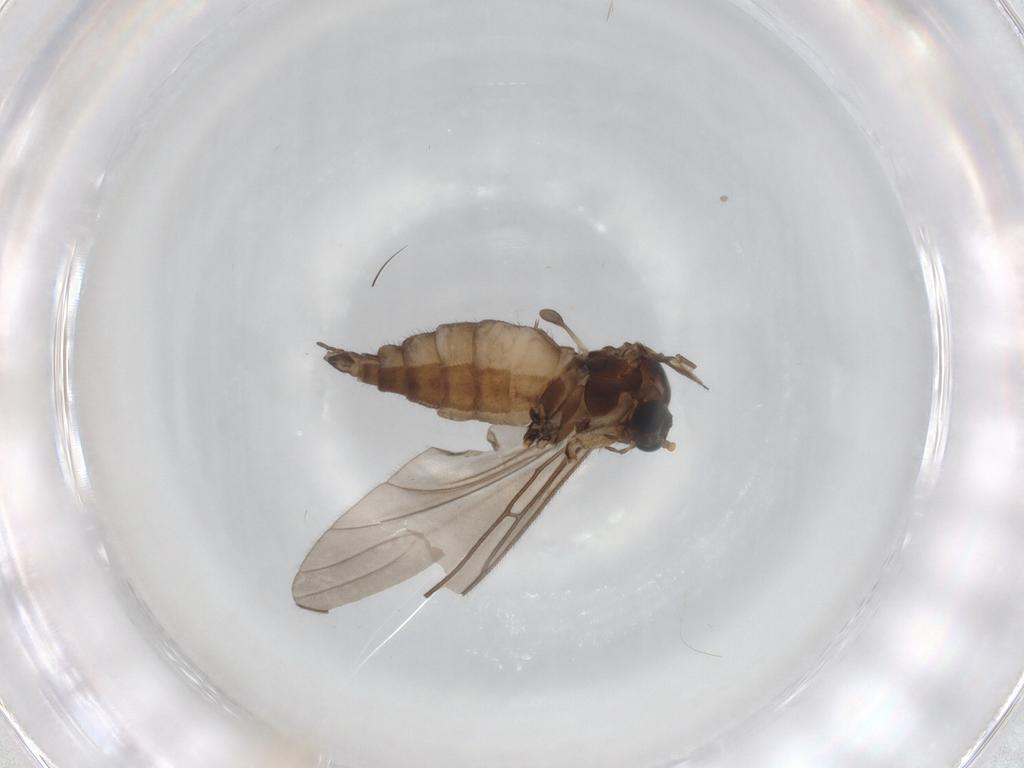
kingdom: Animalia
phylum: Arthropoda
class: Insecta
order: Diptera
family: Sciaridae
